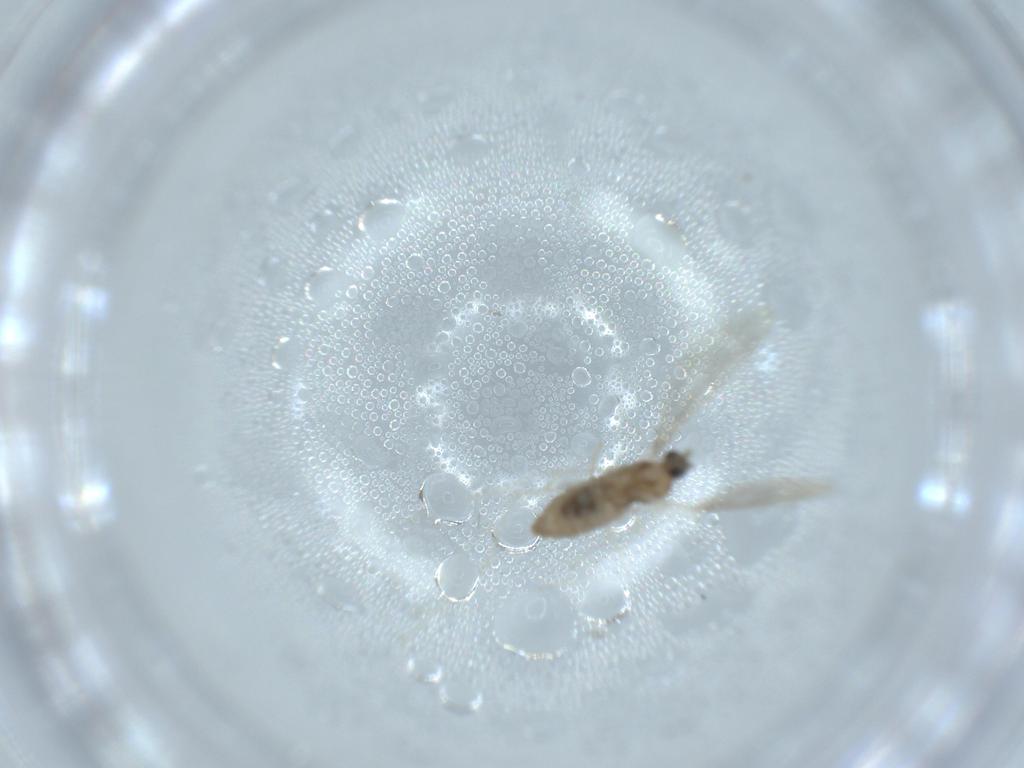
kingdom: Animalia
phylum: Arthropoda
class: Insecta
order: Diptera
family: Cecidomyiidae
